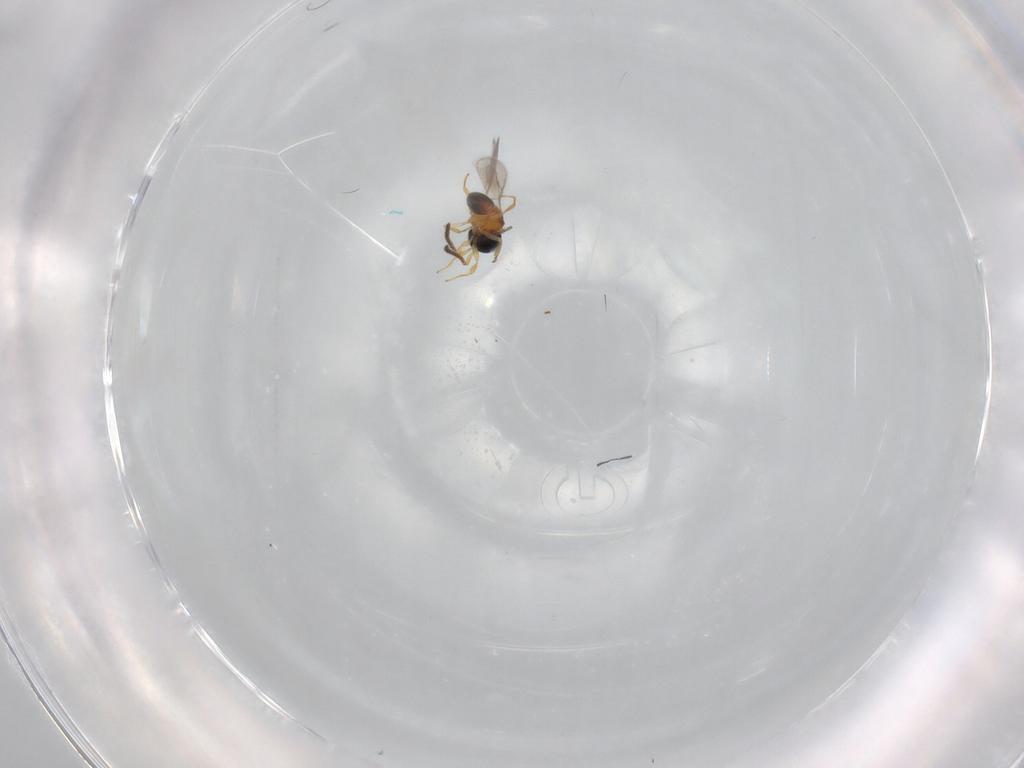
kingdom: Animalia
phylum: Arthropoda
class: Insecta
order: Hymenoptera
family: Scelionidae
